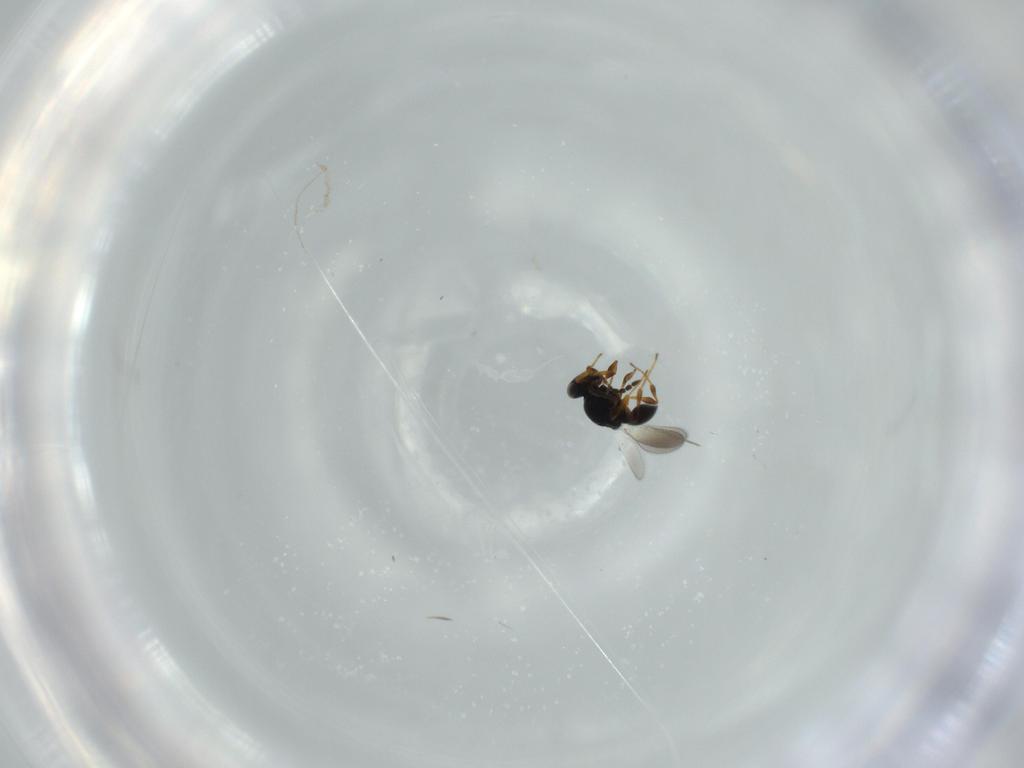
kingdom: Animalia
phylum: Arthropoda
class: Insecta
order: Hymenoptera
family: Platygastridae
